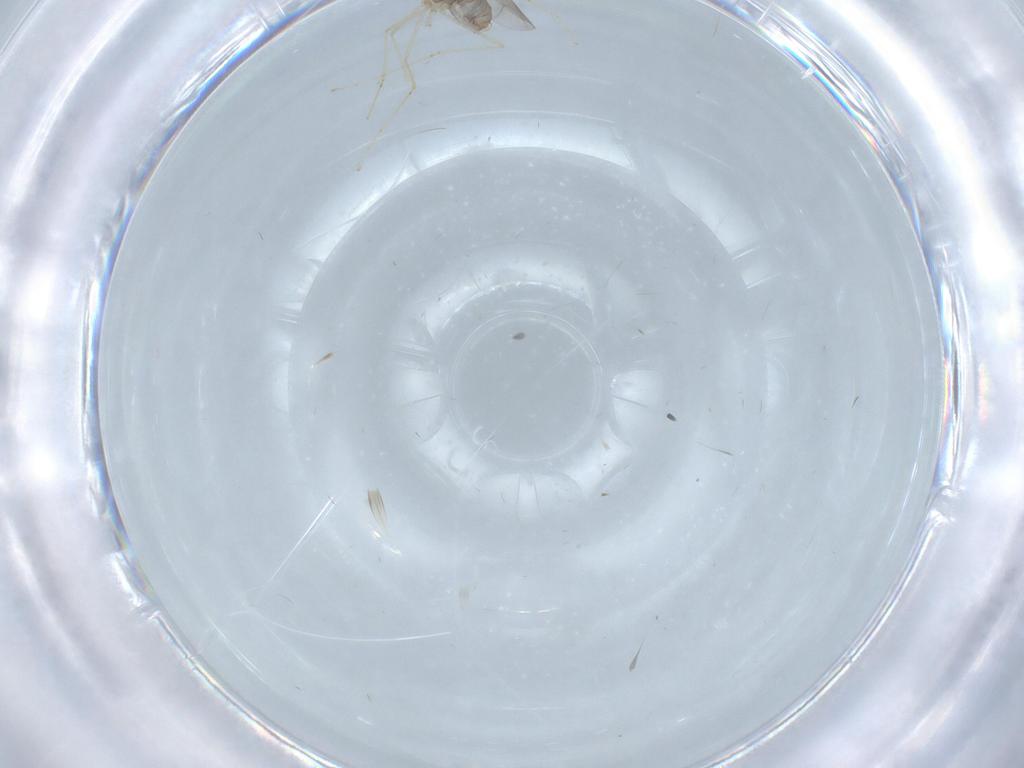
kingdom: Animalia
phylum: Arthropoda
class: Insecta
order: Diptera
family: Cecidomyiidae
